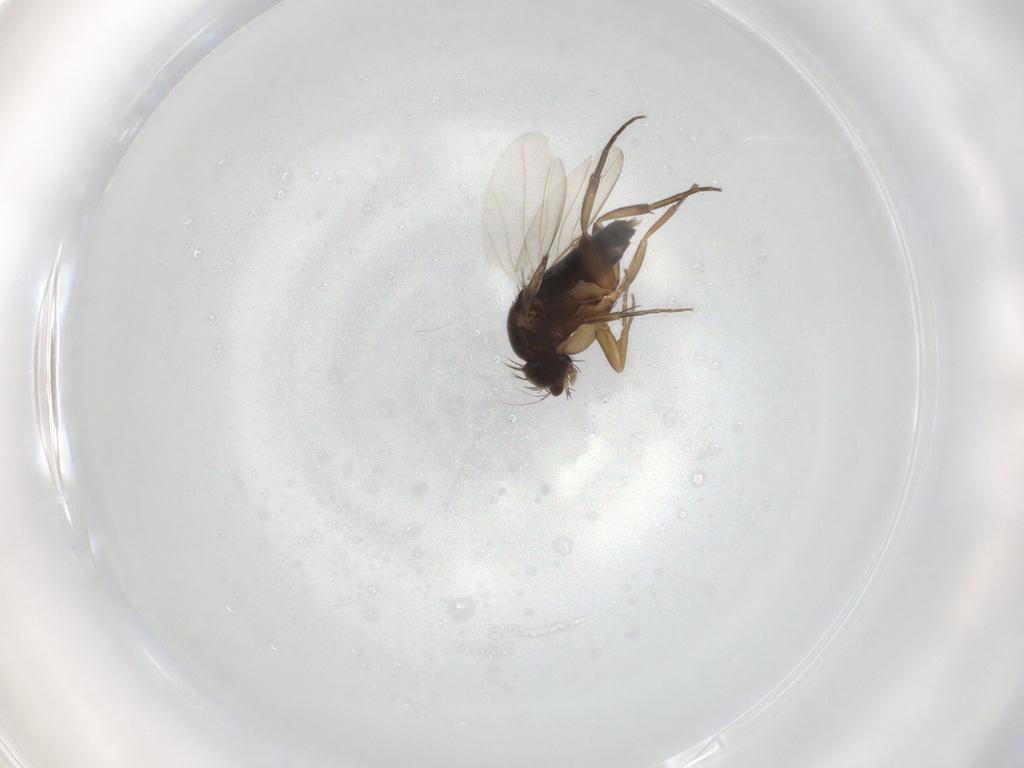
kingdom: Animalia
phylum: Arthropoda
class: Insecta
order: Diptera
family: Phoridae
